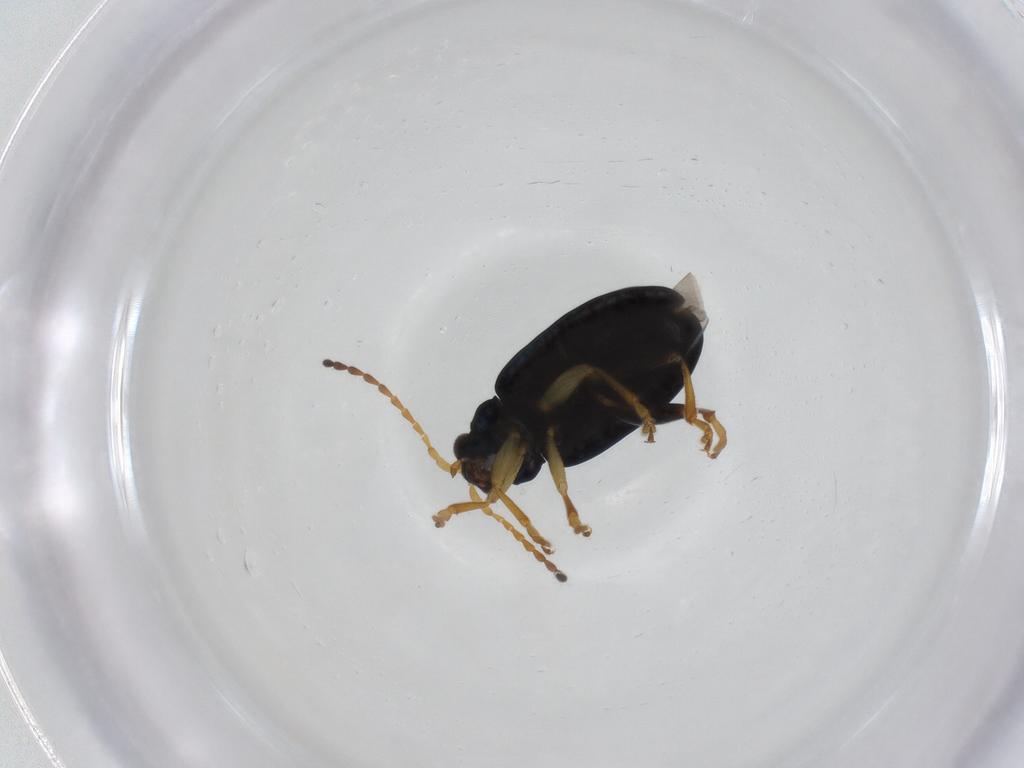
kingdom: Animalia
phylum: Arthropoda
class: Insecta
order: Coleoptera
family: Chrysomelidae
